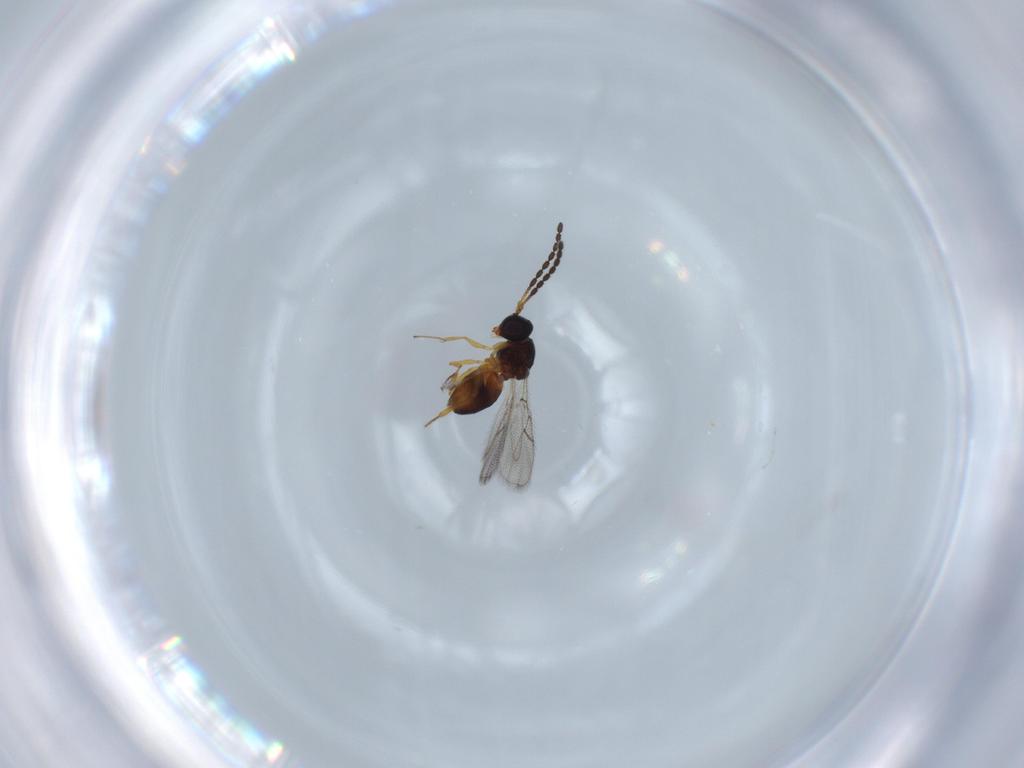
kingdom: Animalia
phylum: Arthropoda
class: Insecta
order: Hymenoptera
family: Figitidae
